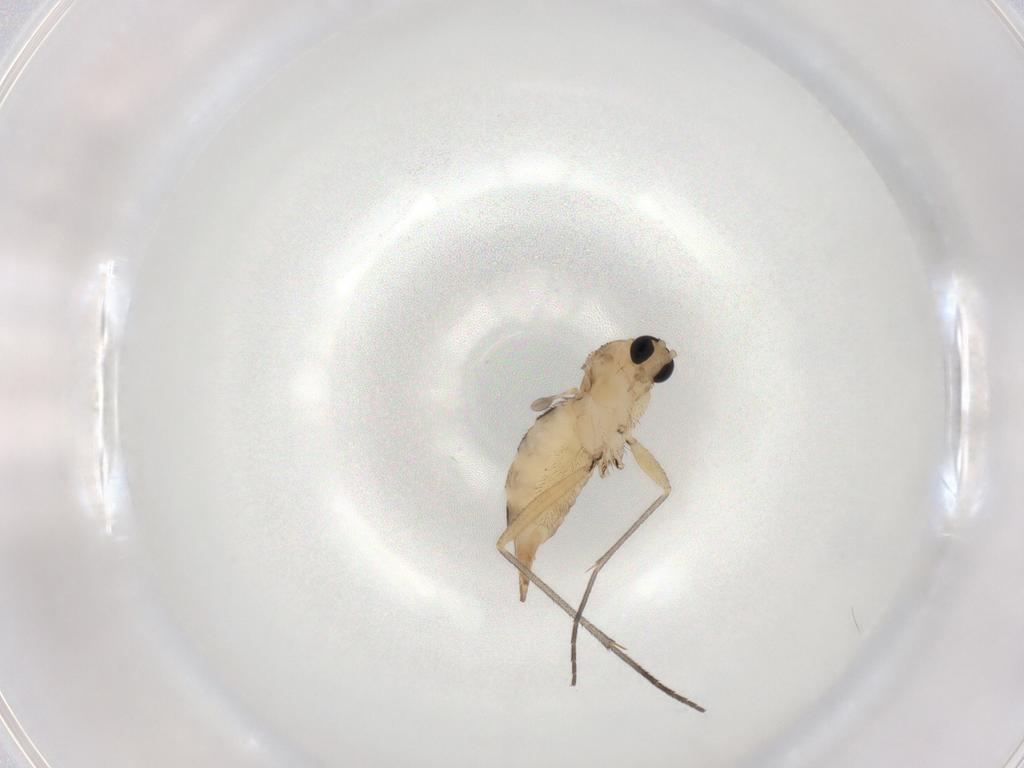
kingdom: Animalia
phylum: Arthropoda
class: Insecta
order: Diptera
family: Sciaridae
